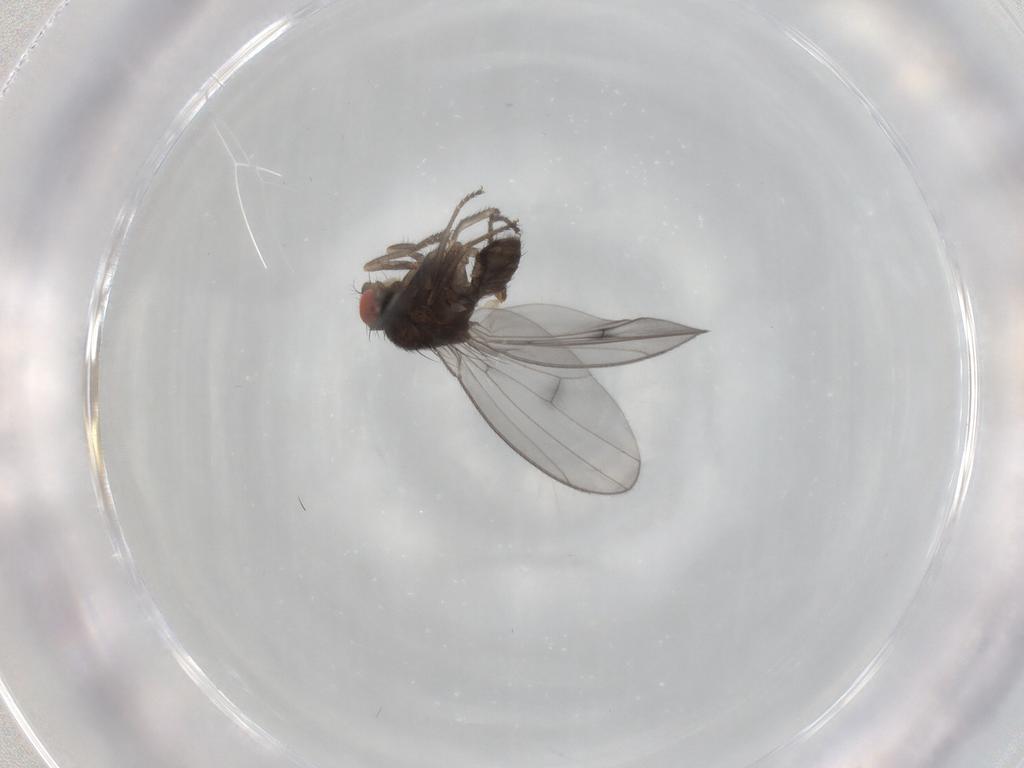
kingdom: Animalia
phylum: Arthropoda
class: Insecta
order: Diptera
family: Drosophilidae
